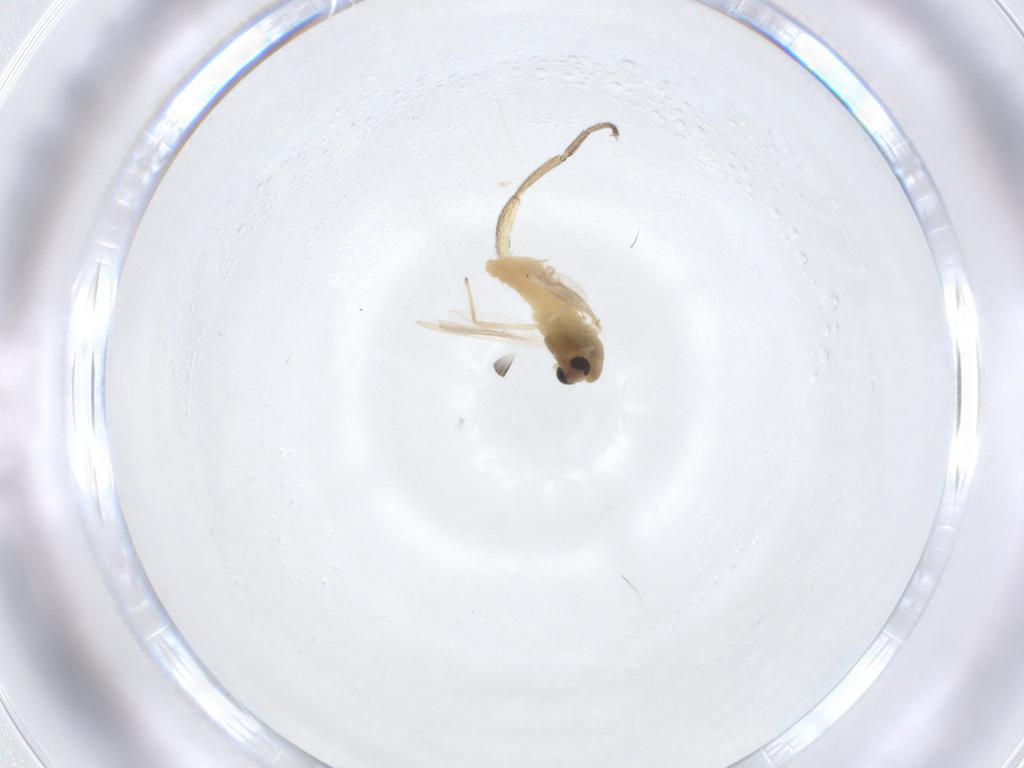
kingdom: Animalia
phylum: Arthropoda
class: Insecta
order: Diptera
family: Chironomidae
